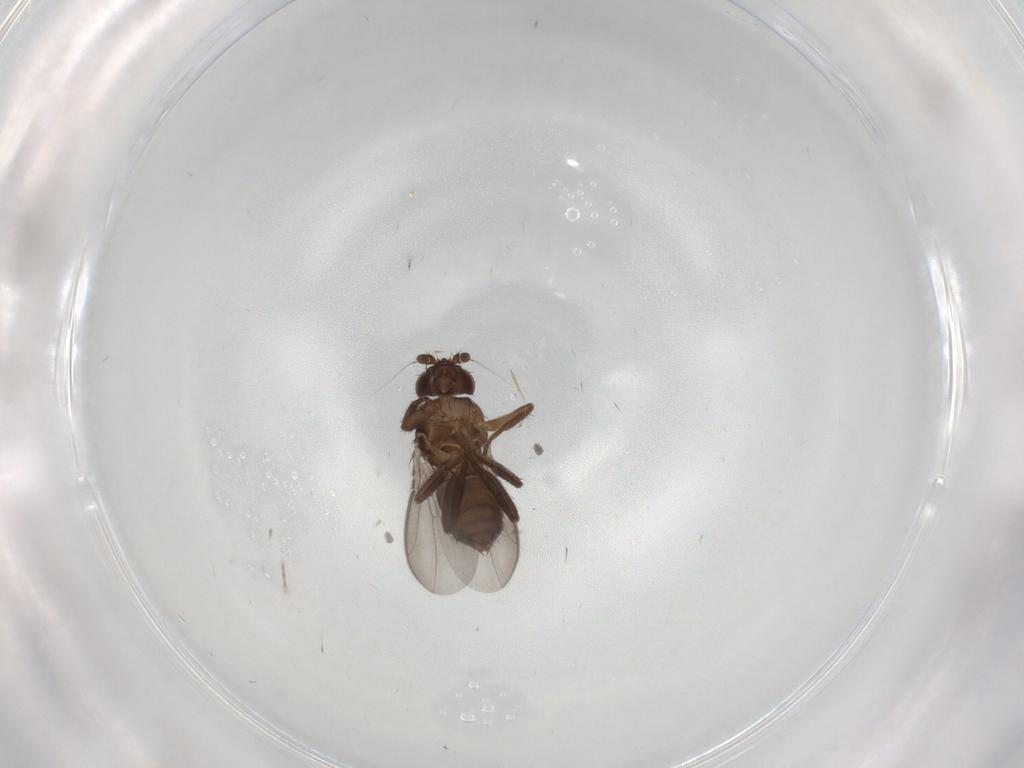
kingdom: Animalia
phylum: Arthropoda
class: Insecta
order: Diptera
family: Sphaeroceridae
